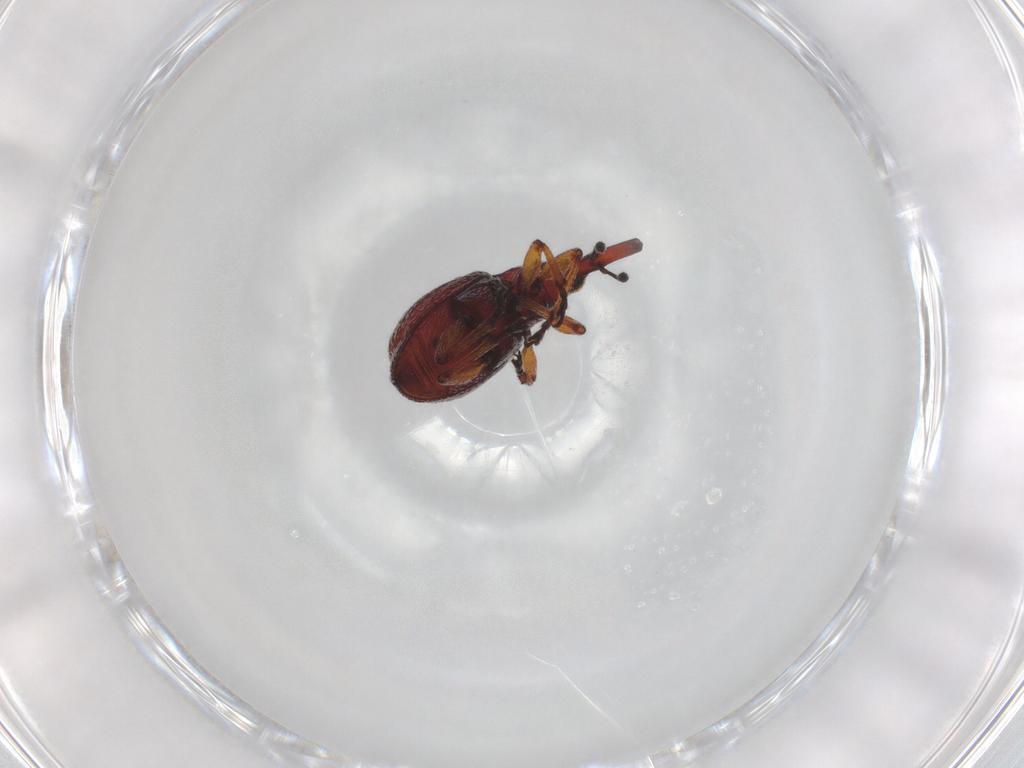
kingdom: Animalia
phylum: Arthropoda
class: Insecta
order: Coleoptera
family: Brentidae
